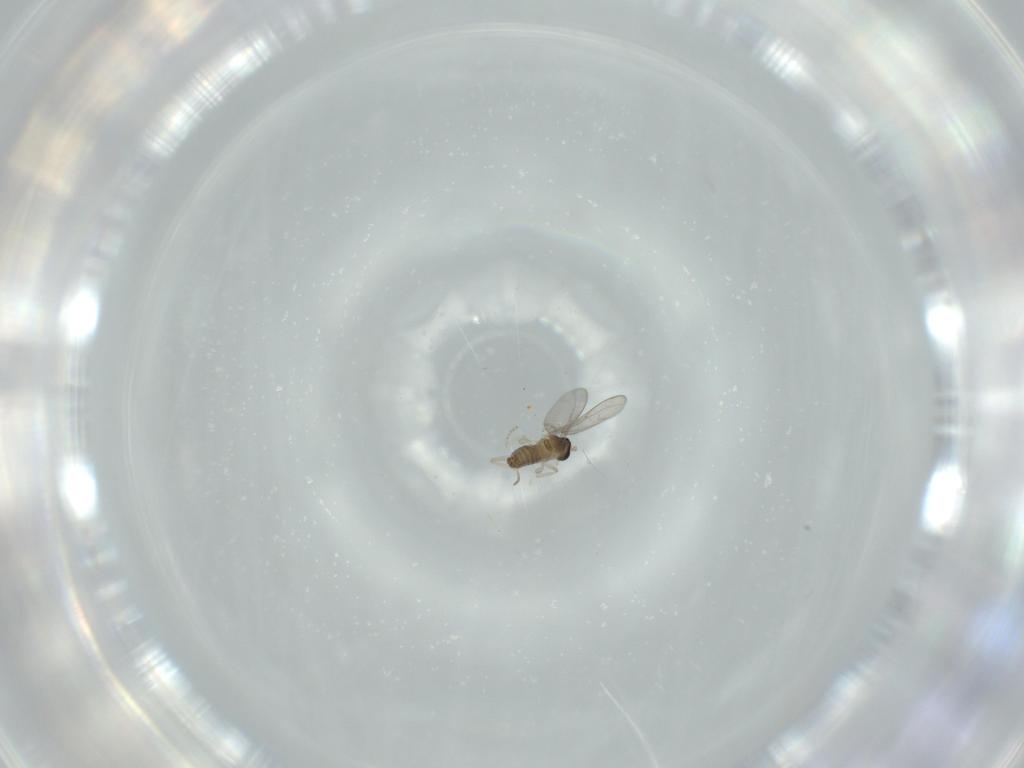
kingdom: Animalia
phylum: Arthropoda
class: Insecta
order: Diptera
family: Cecidomyiidae
